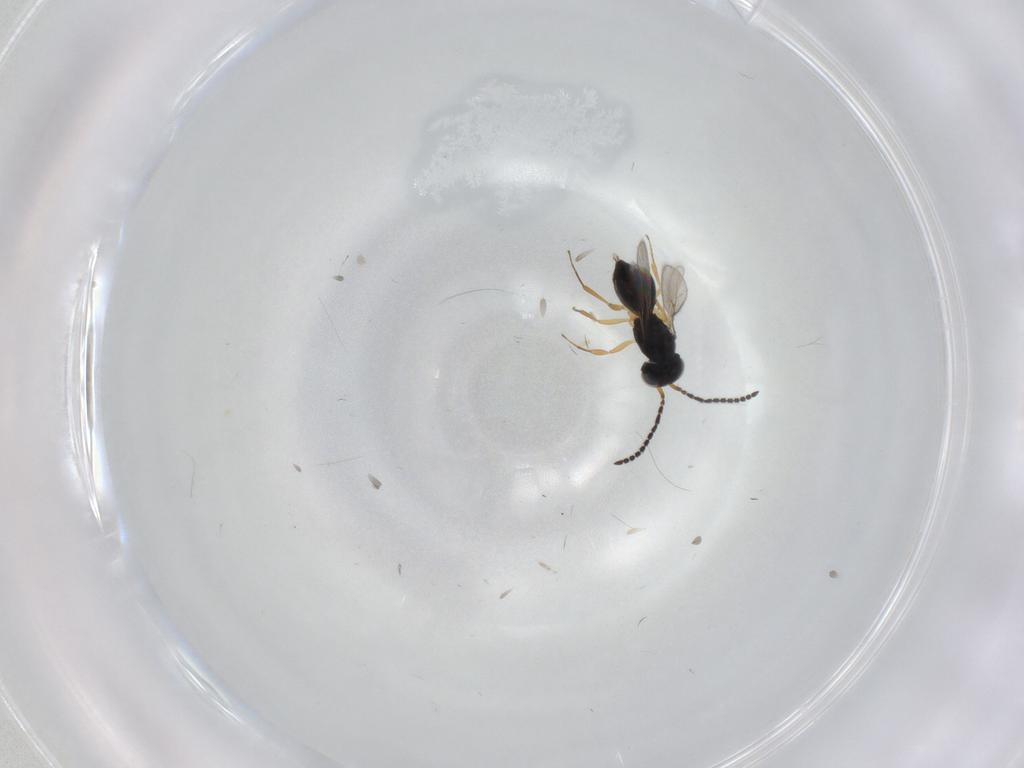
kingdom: Animalia
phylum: Arthropoda
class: Insecta
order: Hymenoptera
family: Scelionidae
